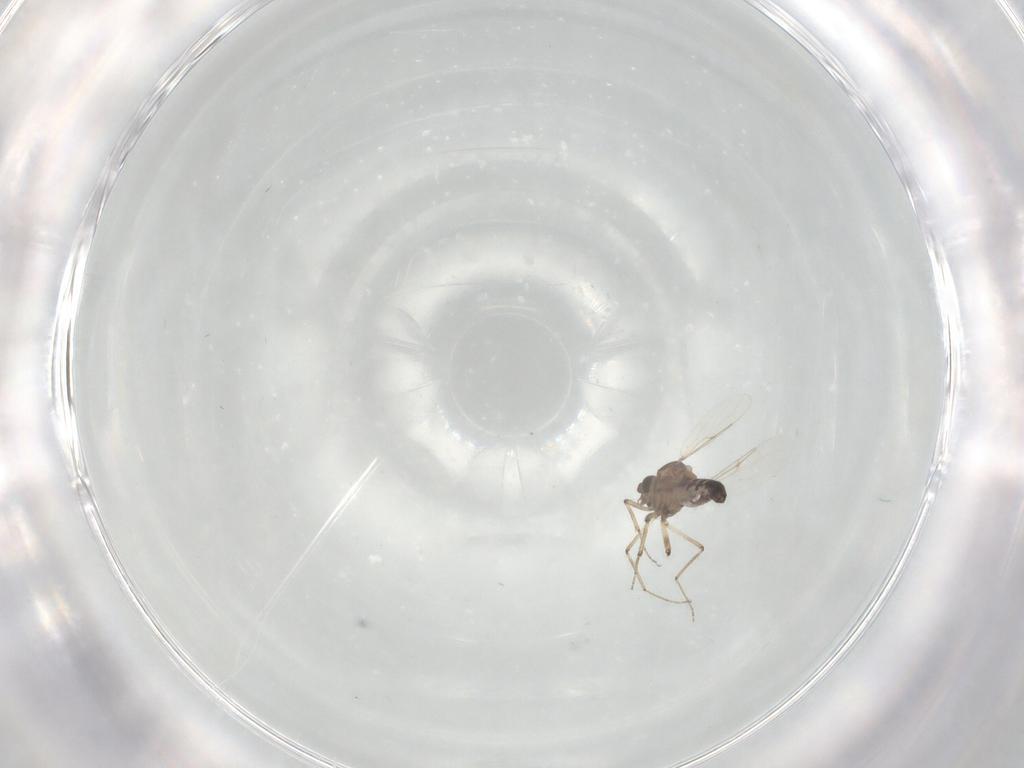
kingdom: Animalia
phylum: Arthropoda
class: Insecta
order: Diptera
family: Ceratopogonidae
